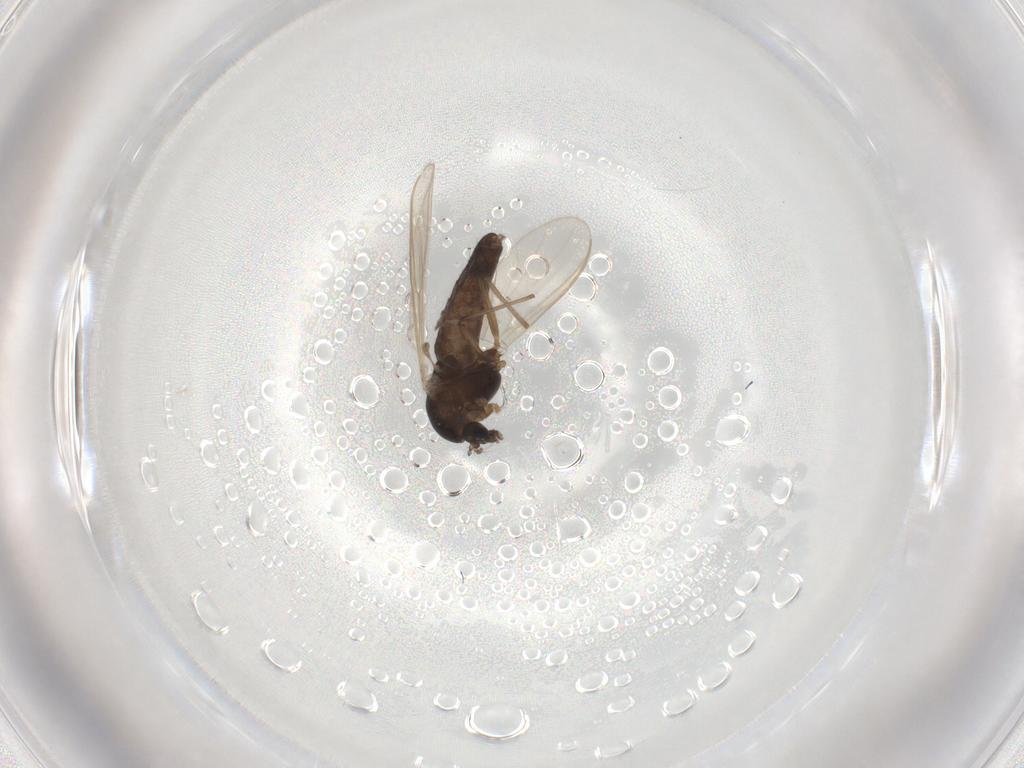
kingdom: Animalia
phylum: Arthropoda
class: Insecta
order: Diptera
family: Chironomidae
